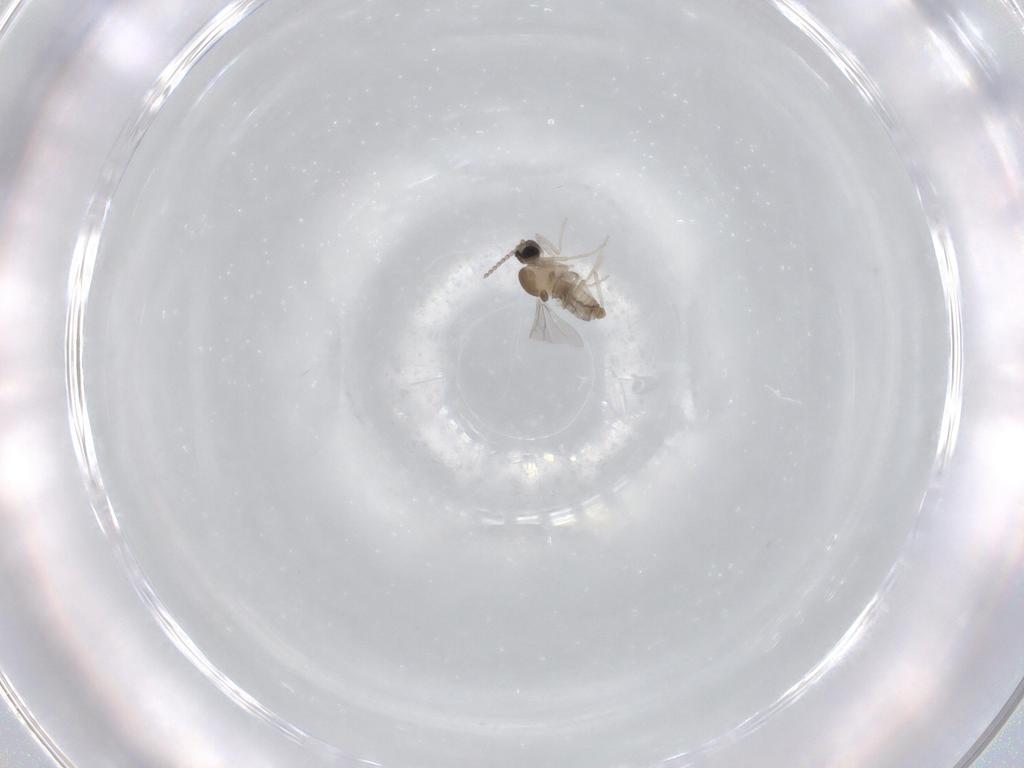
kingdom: Animalia
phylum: Arthropoda
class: Insecta
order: Diptera
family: Cecidomyiidae
